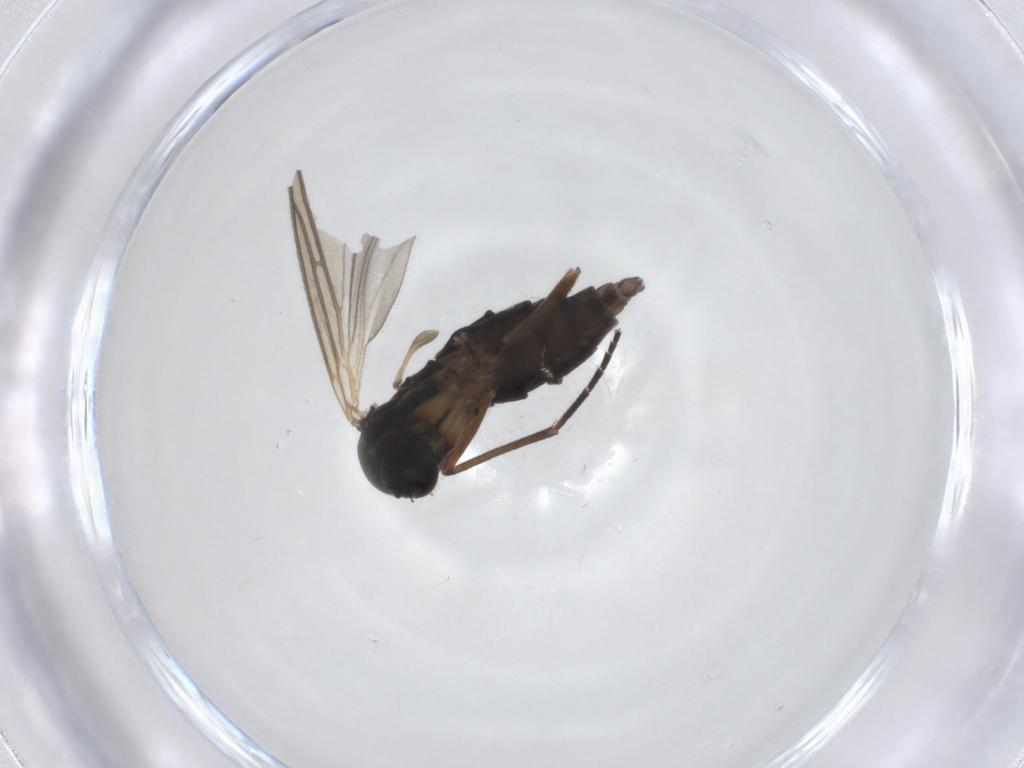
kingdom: Animalia
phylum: Arthropoda
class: Insecta
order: Diptera
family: Sciaridae
